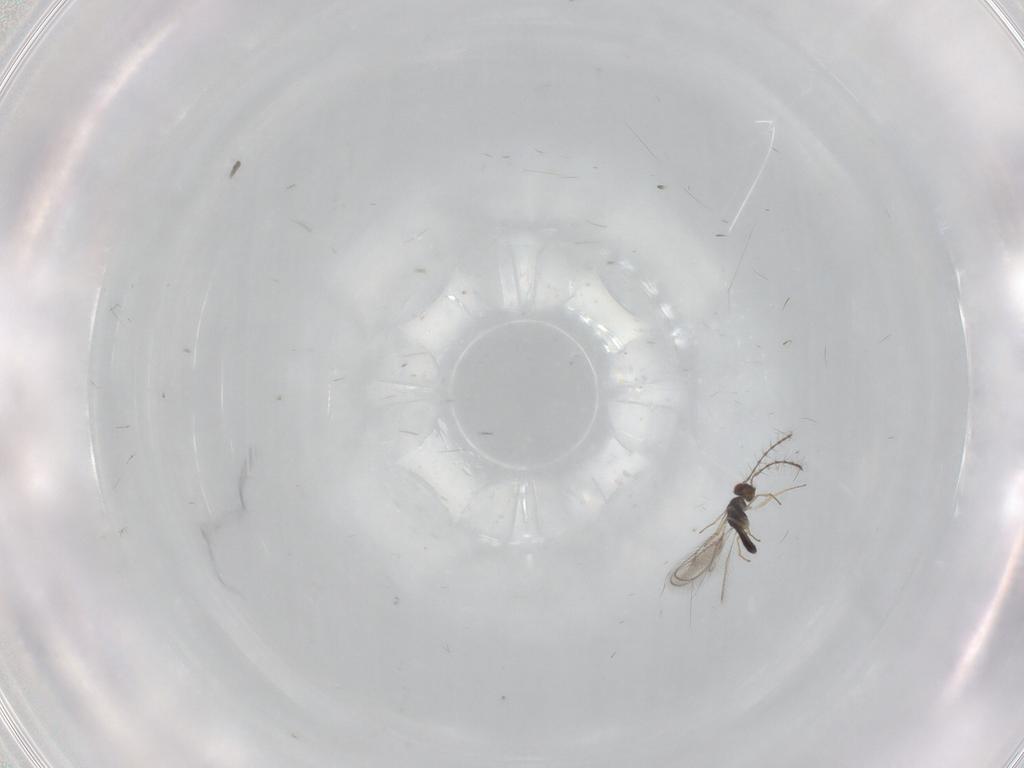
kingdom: Animalia
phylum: Arthropoda
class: Insecta
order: Hymenoptera
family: Pteromalidae
